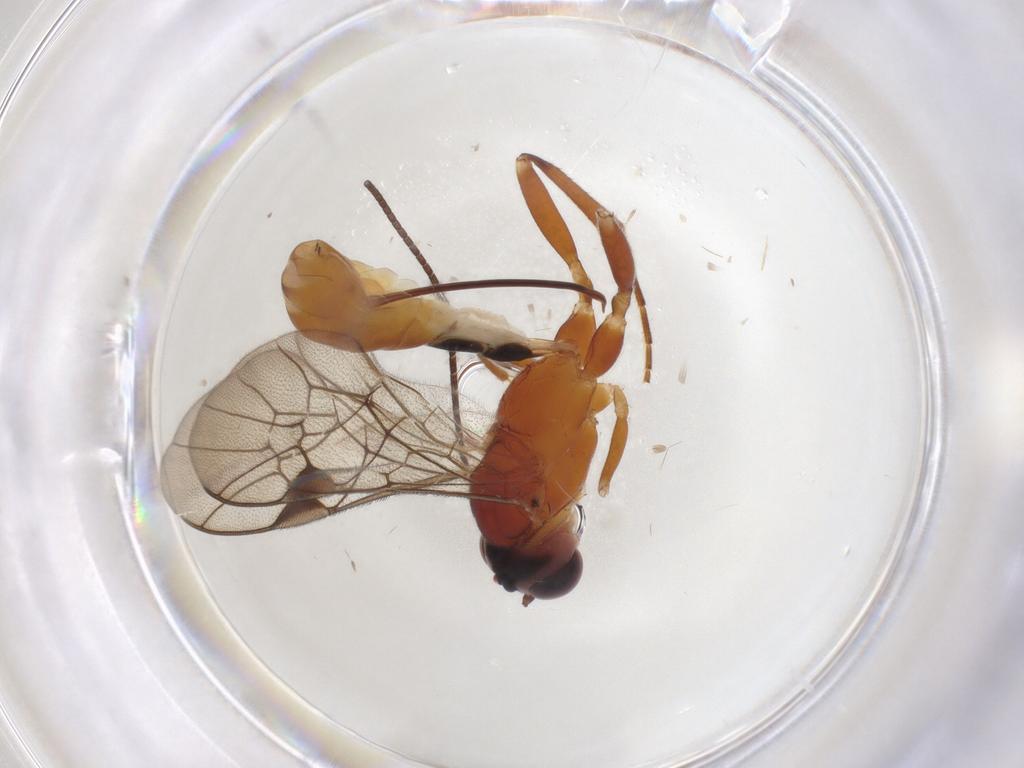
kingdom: Animalia
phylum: Arthropoda
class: Insecta
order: Hymenoptera
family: Ichneumonidae
